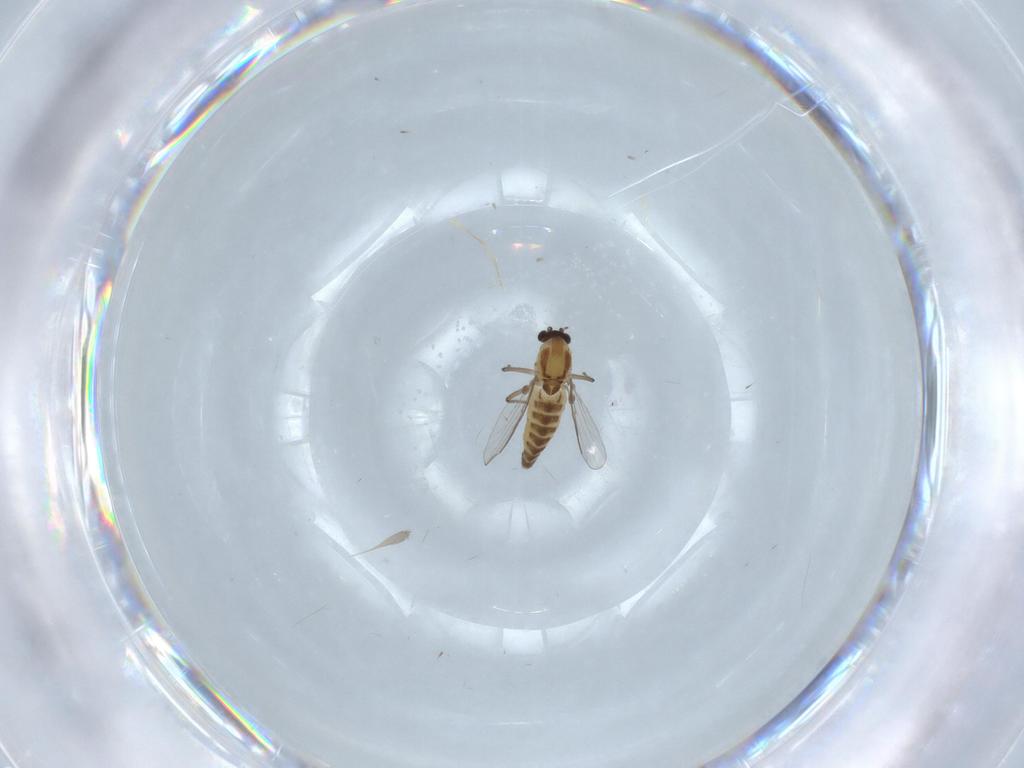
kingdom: Animalia
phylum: Arthropoda
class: Insecta
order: Diptera
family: Chironomidae
